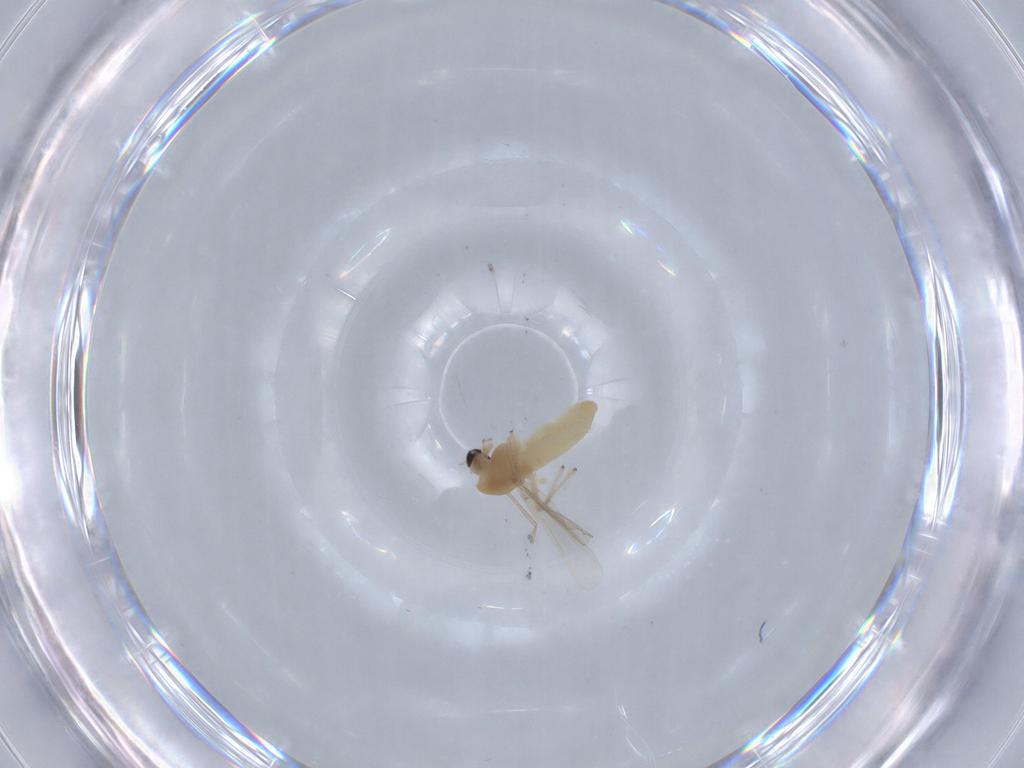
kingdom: Animalia
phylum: Arthropoda
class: Insecta
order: Diptera
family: Chironomidae
